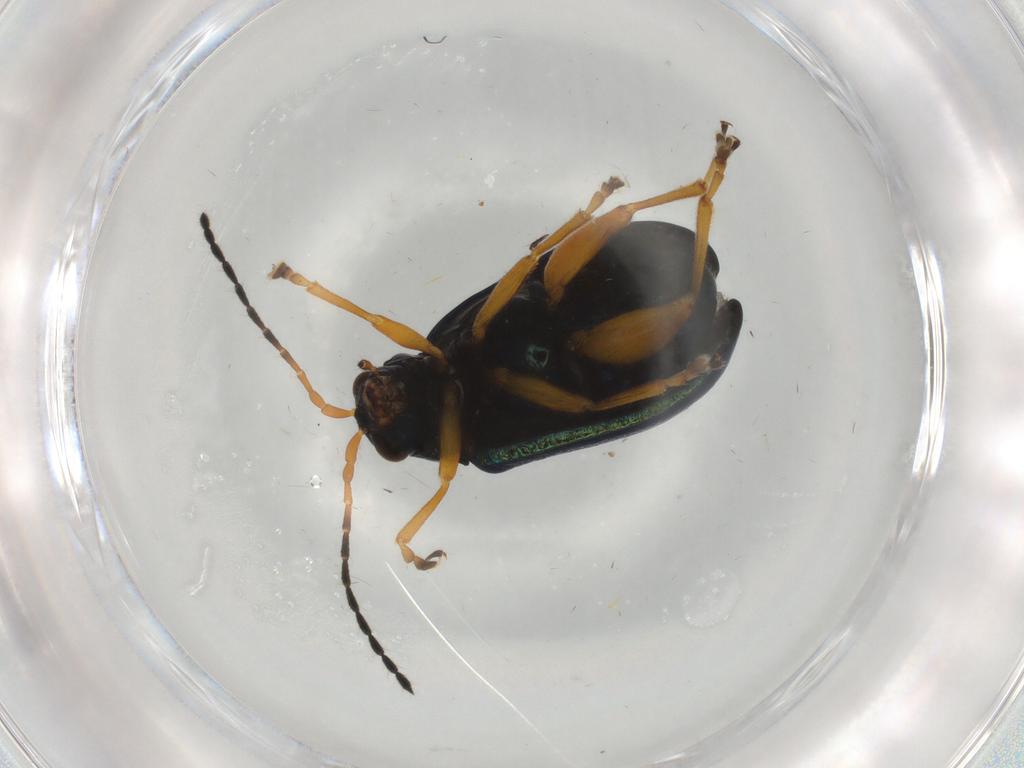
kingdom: Animalia
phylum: Arthropoda
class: Insecta
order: Coleoptera
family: Chrysomelidae
